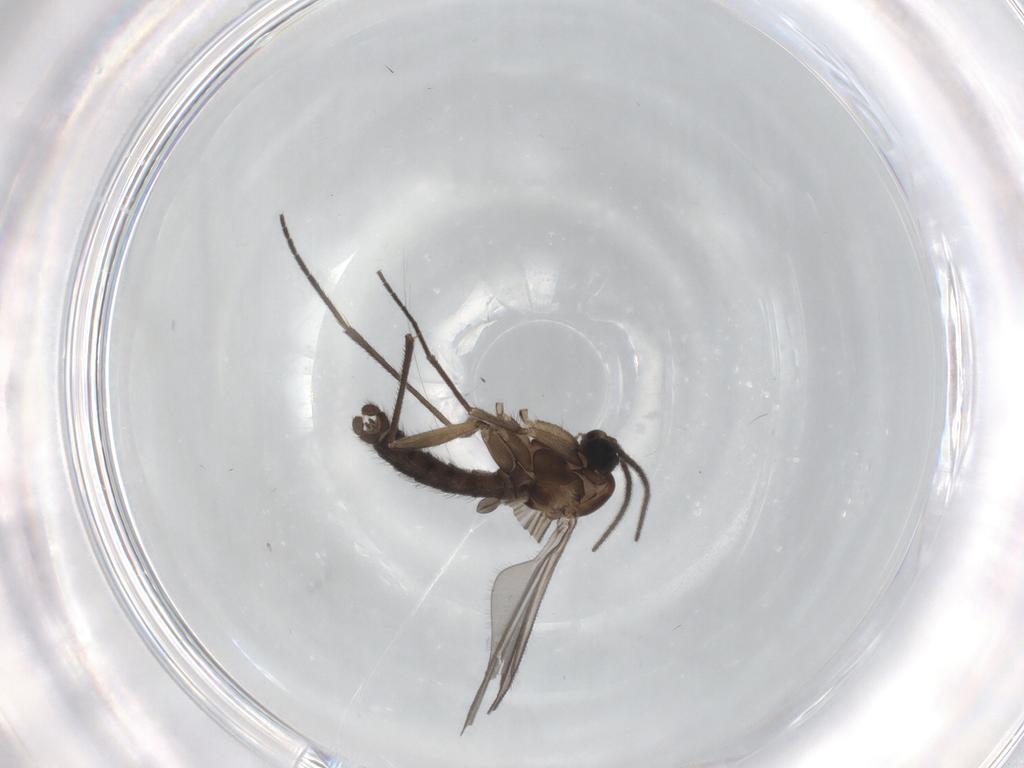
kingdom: Animalia
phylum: Arthropoda
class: Insecta
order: Diptera
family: Sciaridae
